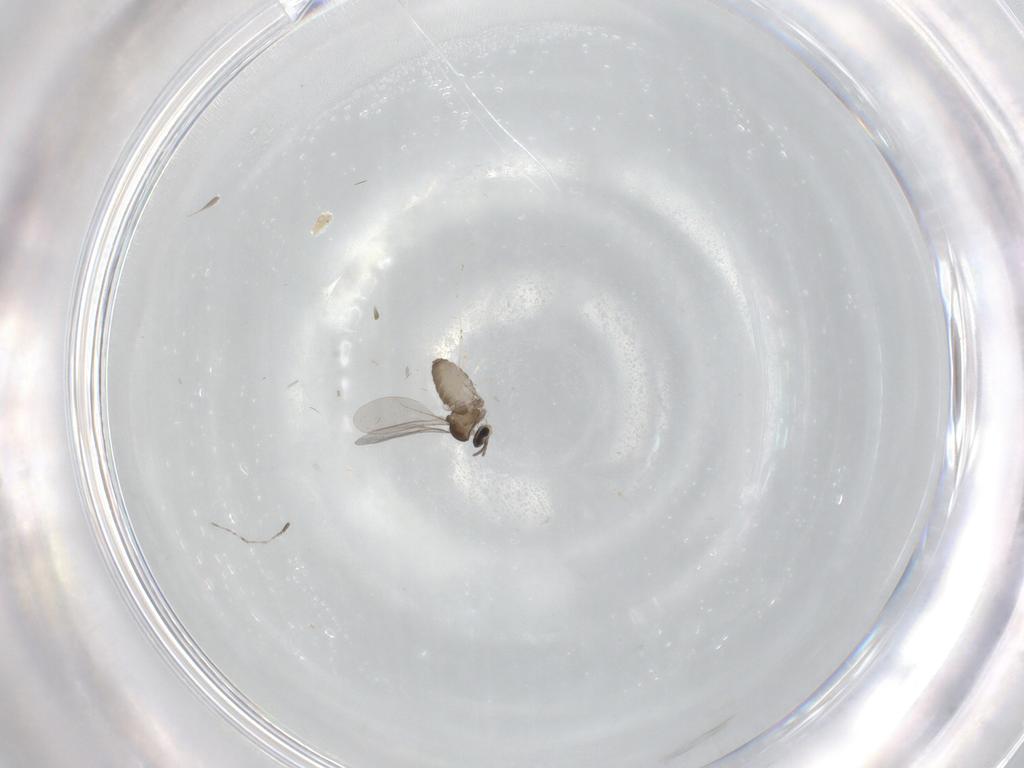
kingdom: Animalia
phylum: Arthropoda
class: Insecta
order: Diptera
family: Cecidomyiidae
